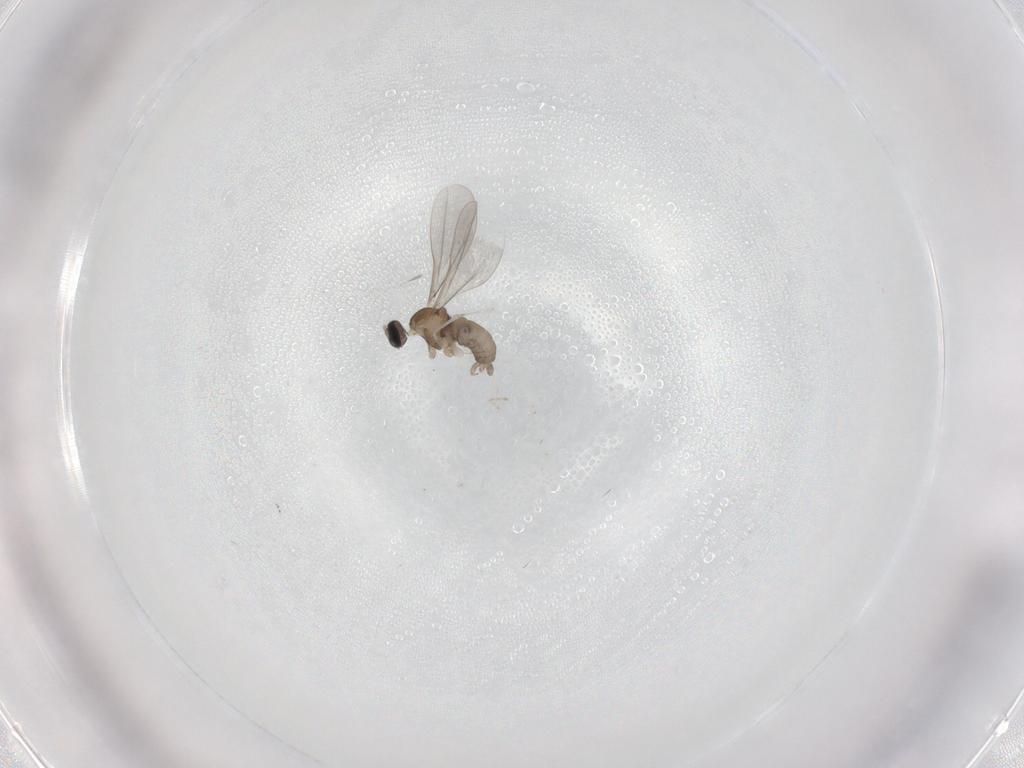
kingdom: Animalia
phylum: Arthropoda
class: Insecta
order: Diptera
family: Cecidomyiidae
